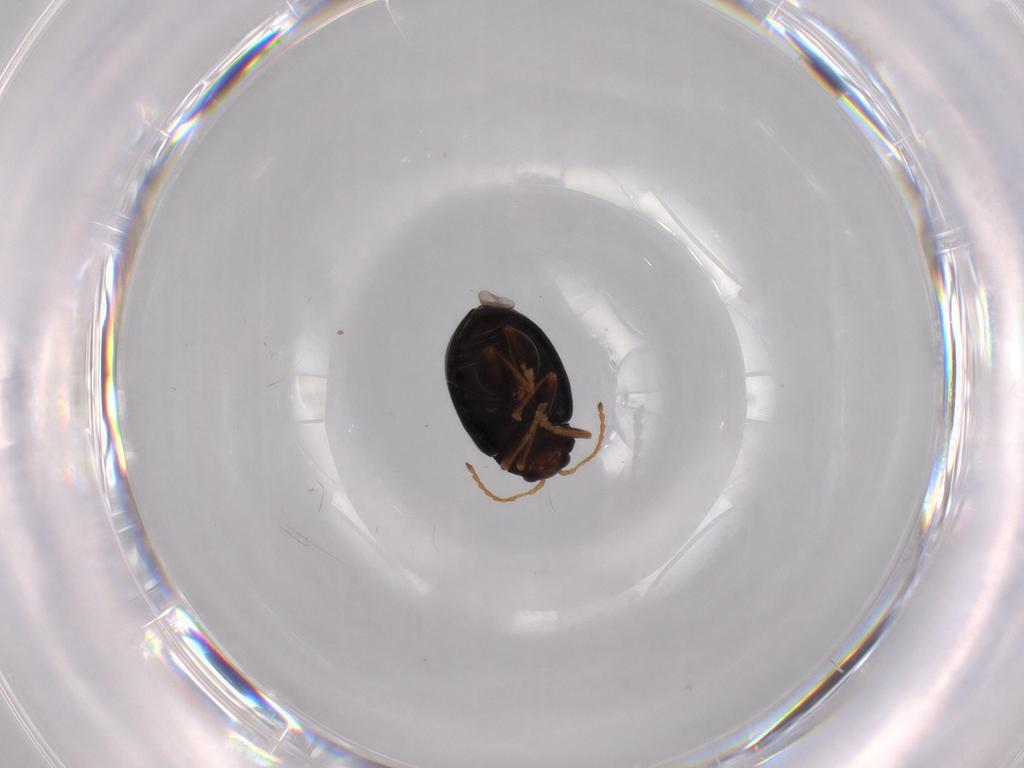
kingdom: Animalia
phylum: Arthropoda
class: Insecta
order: Coleoptera
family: Chrysomelidae
